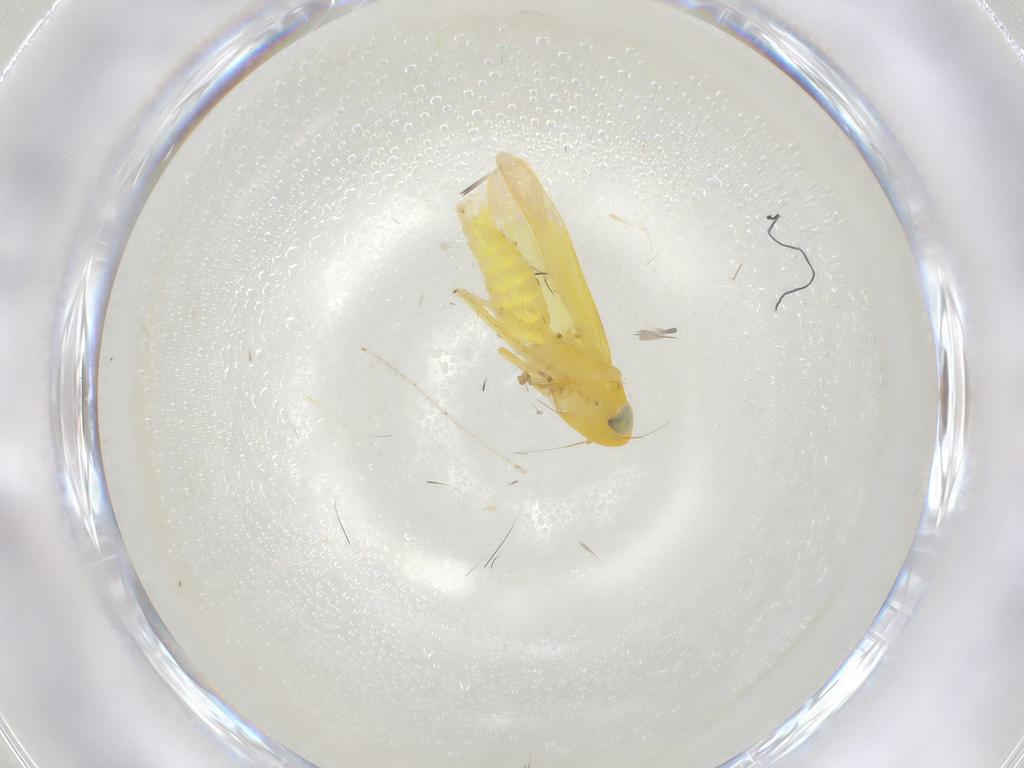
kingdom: Animalia
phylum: Arthropoda
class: Insecta
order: Hemiptera
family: Cicadellidae
